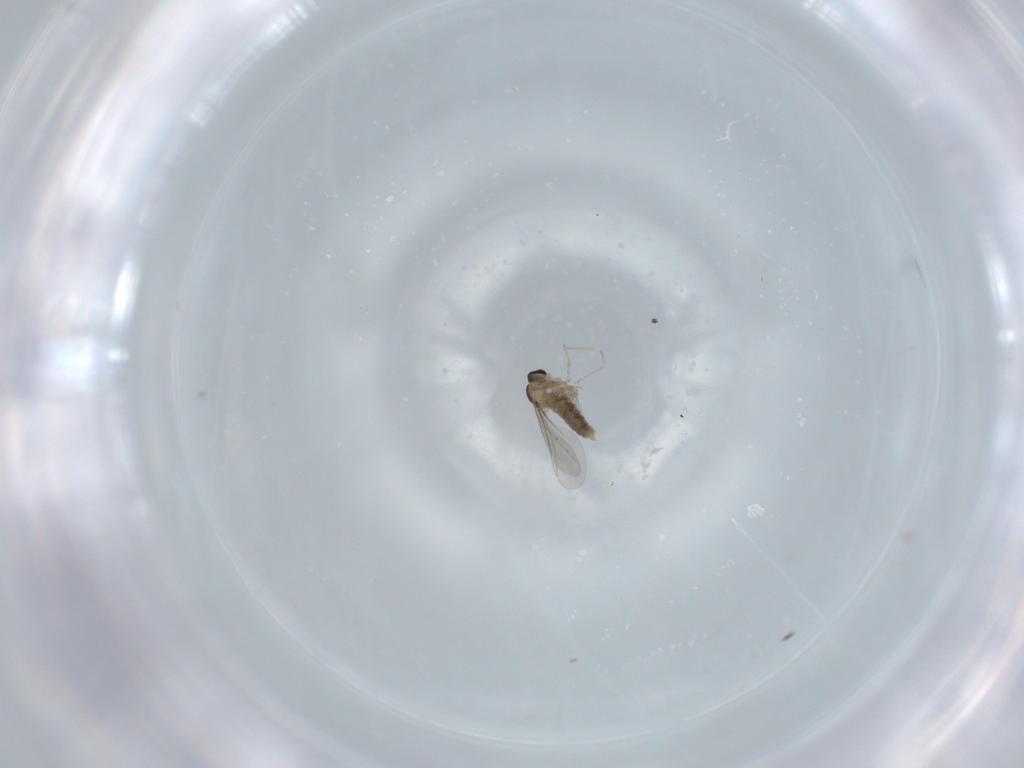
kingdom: Animalia
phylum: Arthropoda
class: Insecta
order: Diptera
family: Cecidomyiidae
